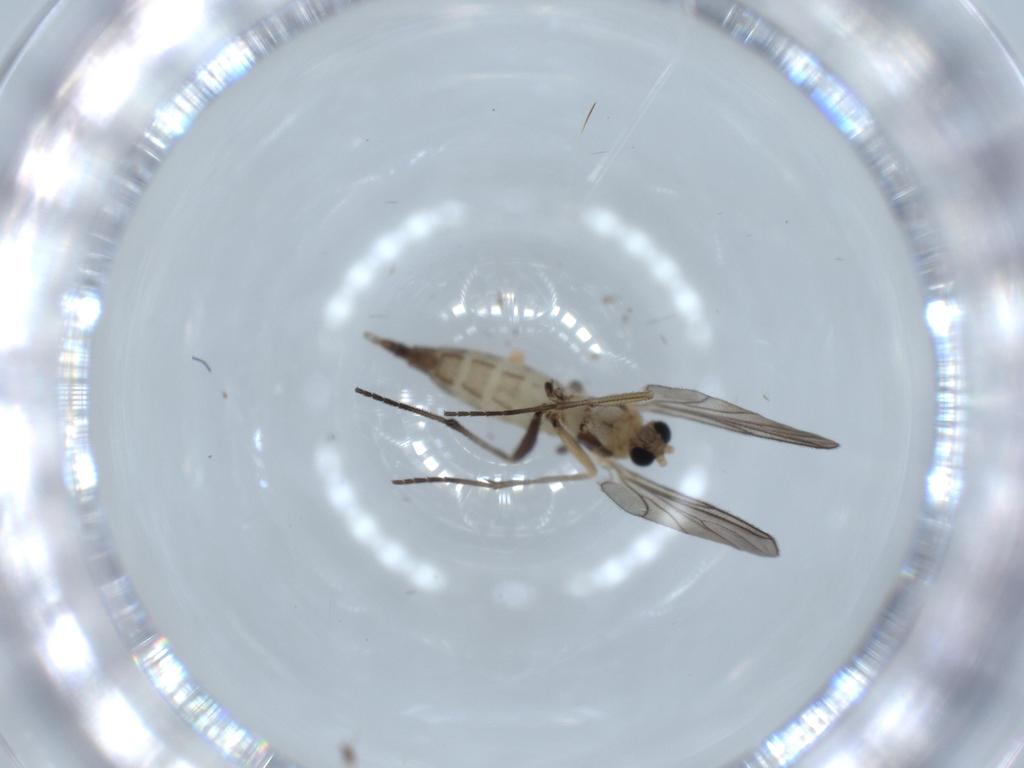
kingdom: Animalia
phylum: Arthropoda
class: Insecta
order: Diptera
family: Sciaridae
